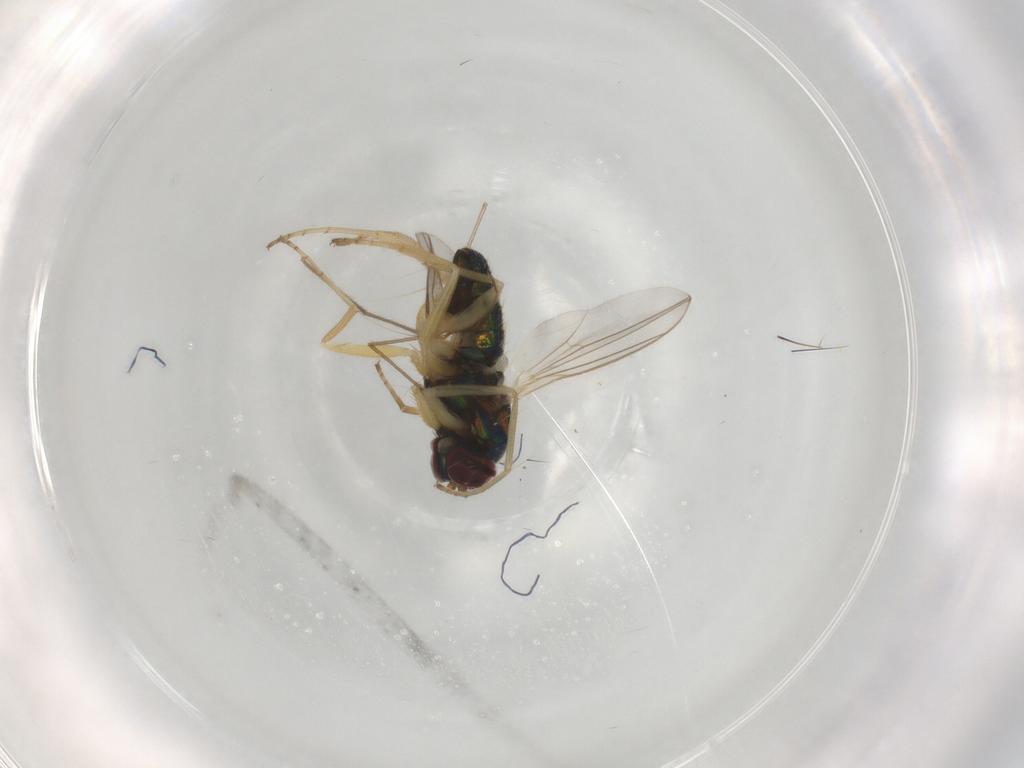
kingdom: Animalia
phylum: Arthropoda
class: Insecta
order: Diptera
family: Dolichopodidae
